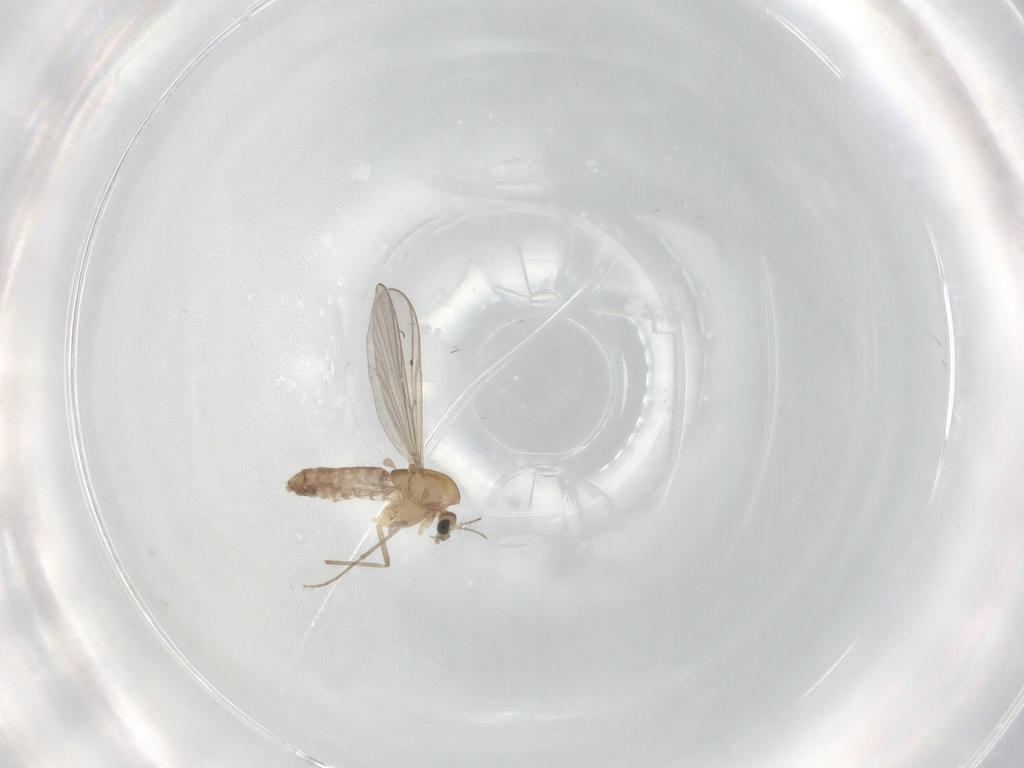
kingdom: Animalia
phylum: Arthropoda
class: Insecta
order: Diptera
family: Chironomidae
